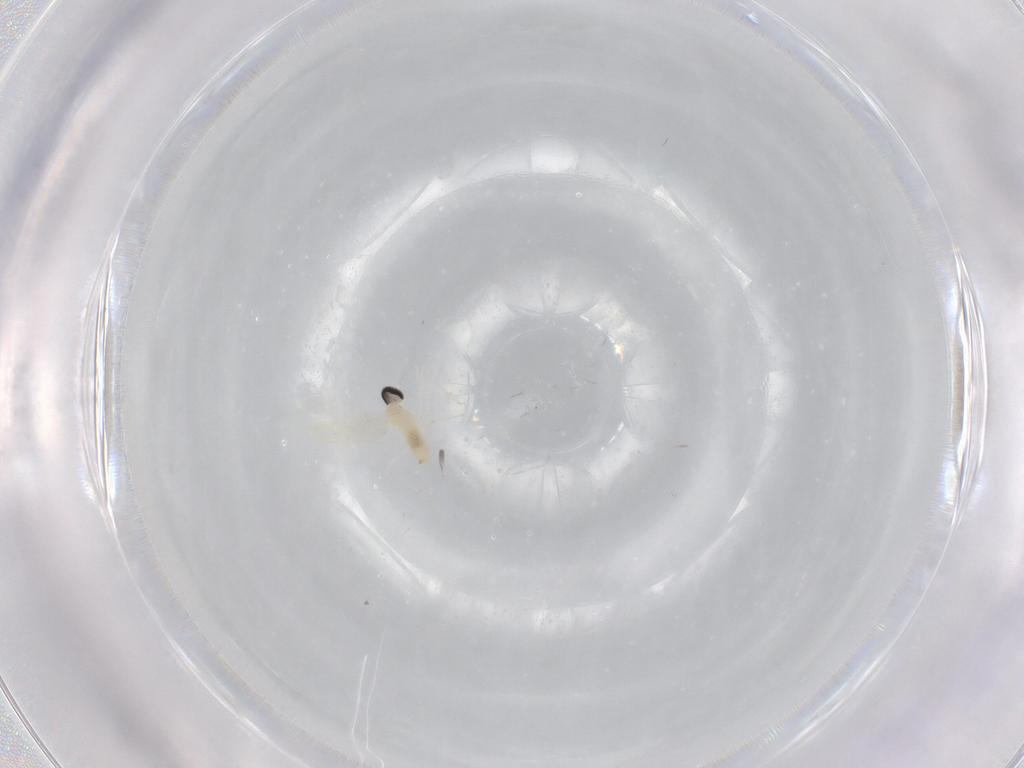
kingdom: Animalia
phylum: Arthropoda
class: Insecta
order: Diptera
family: Cecidomyiidae
